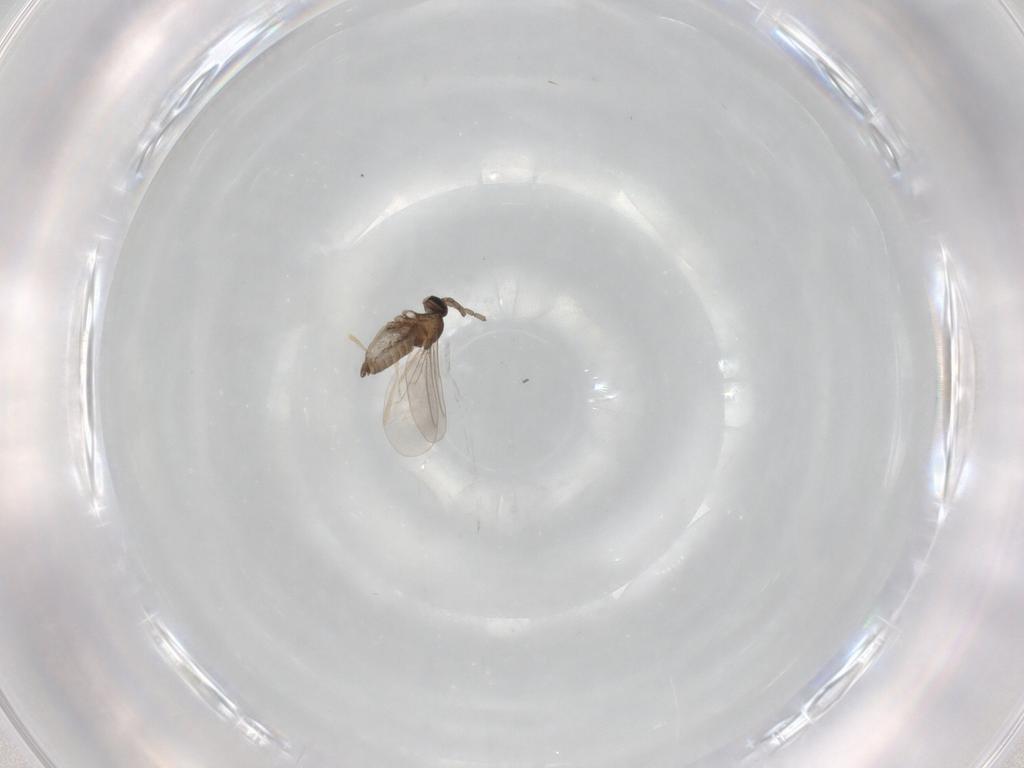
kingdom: Animalia
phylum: Arthropoda
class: Insecta
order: Diptera
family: Cecidomyiidae
